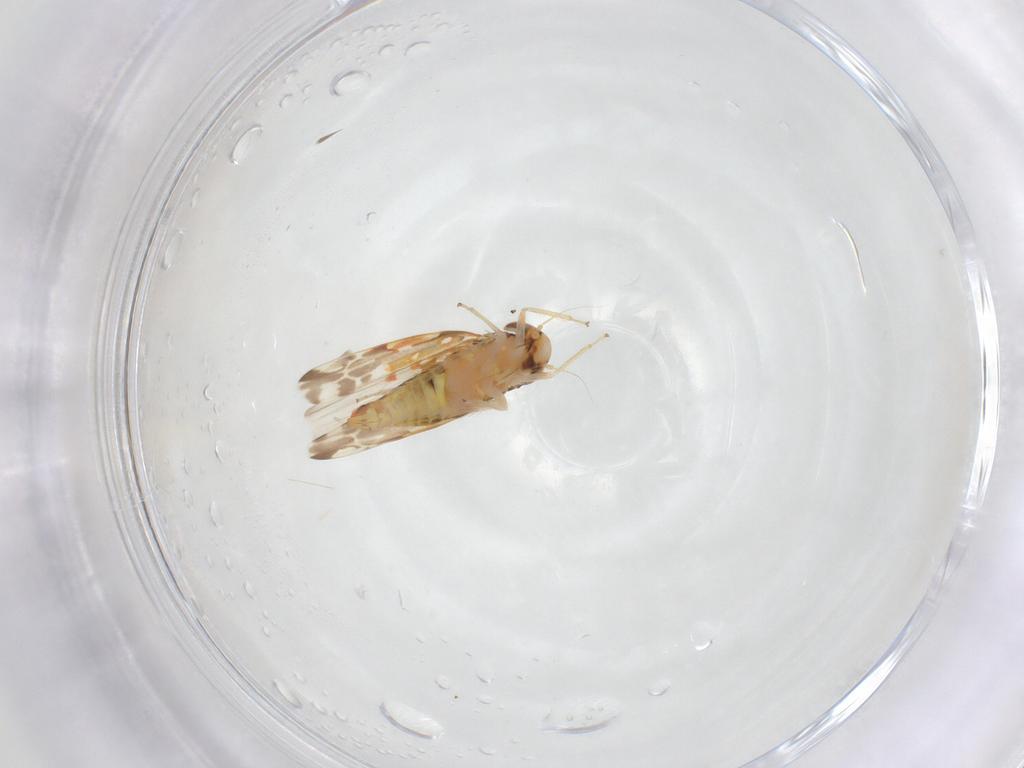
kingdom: Animalia
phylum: Arthropoda
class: Insecta
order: Hemiptera
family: Cicadellidae
